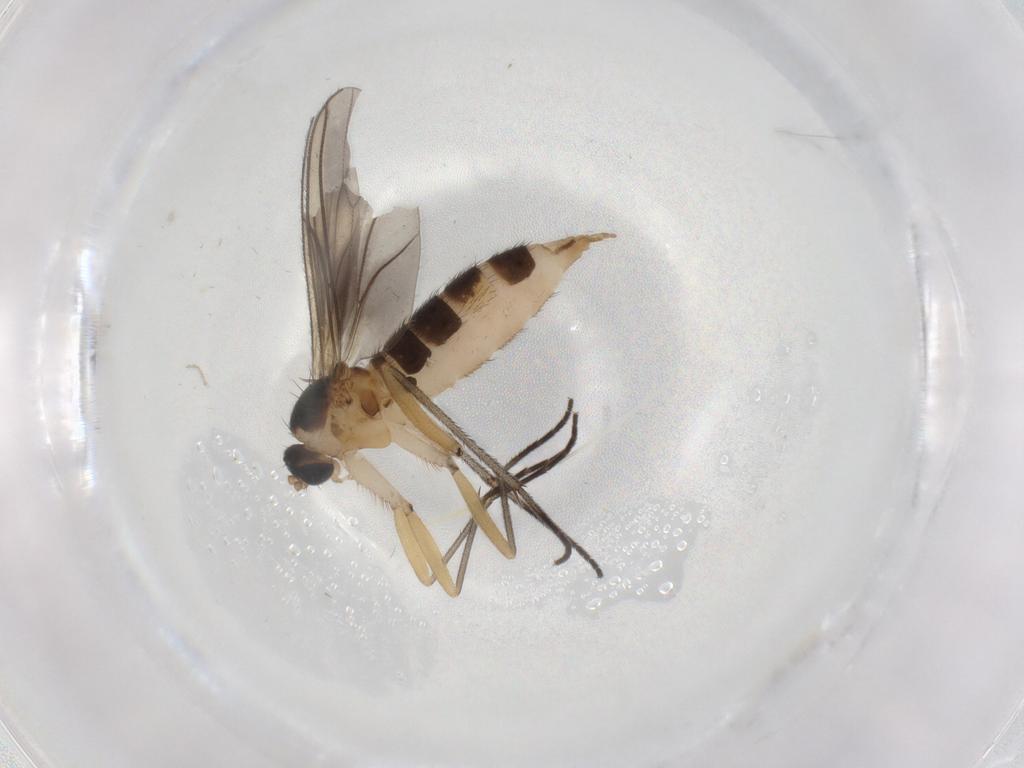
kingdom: Animalia
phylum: Arthropoda
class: Insecta
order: Diptera
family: Sciaridae
